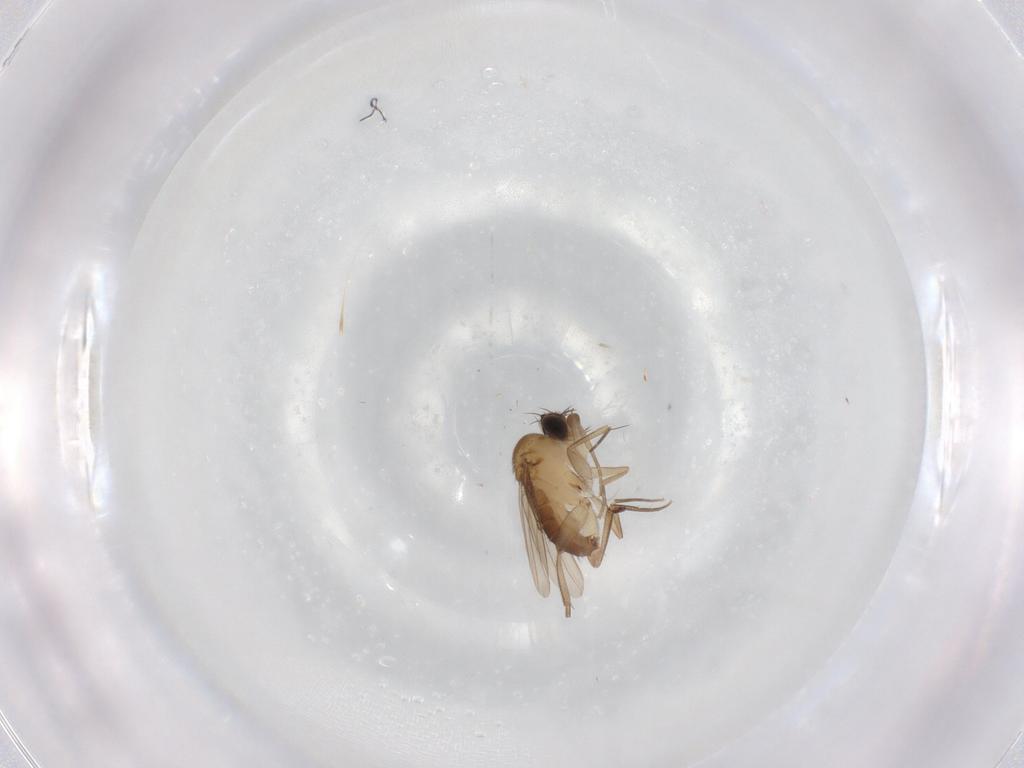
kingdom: Animalia
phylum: Arthropoda
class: Insecta
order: Diptera
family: Phoridae
